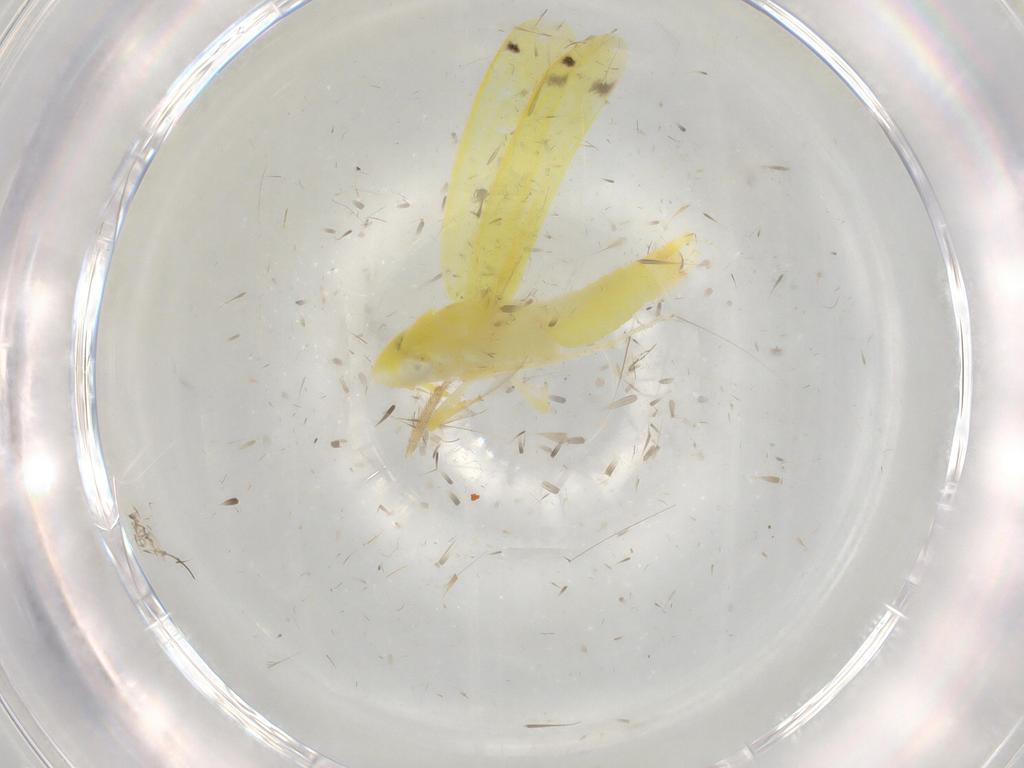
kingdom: Animalia
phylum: Arthropoda
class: Insecta
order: Hemiptera
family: Cicadellidae
